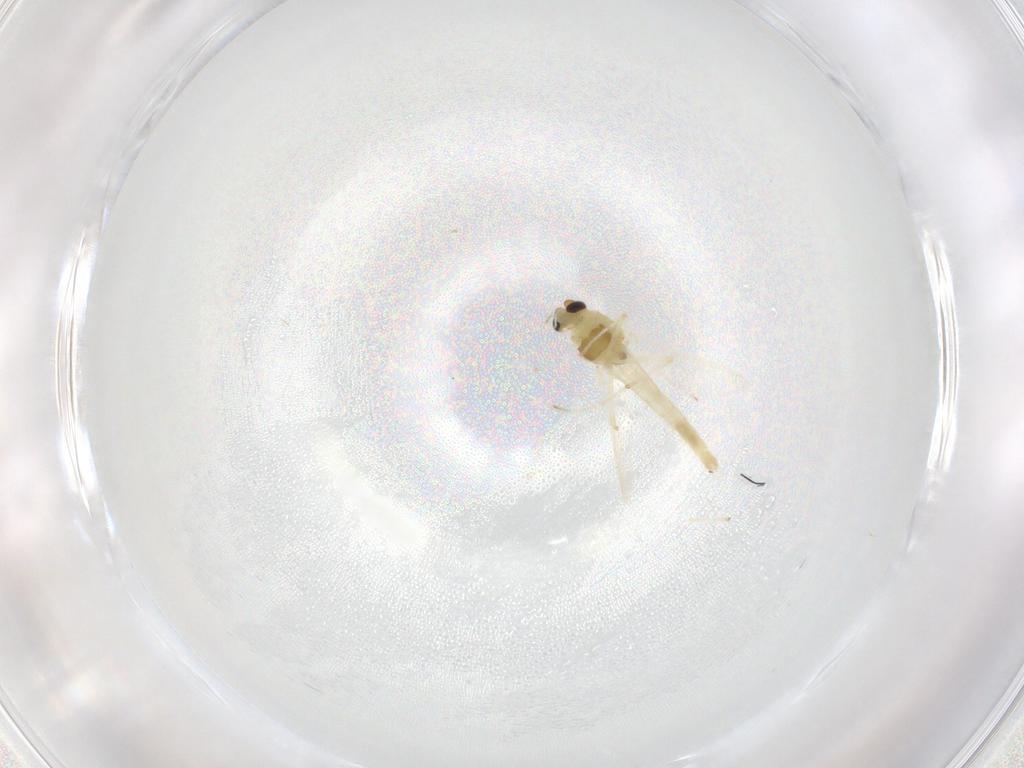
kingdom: Animalia
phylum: Arthropoda
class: Insecta
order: Diptera
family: Chironomidae
